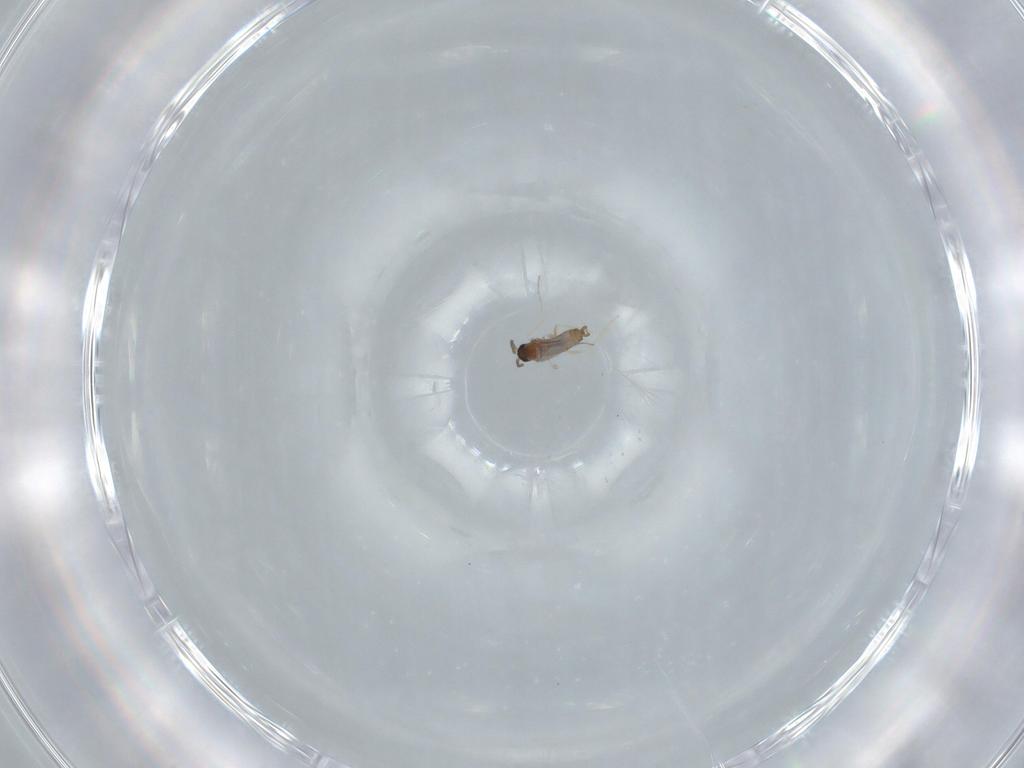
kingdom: Animalia
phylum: Arthropoda
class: Insecta
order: Diptera
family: Cecidomyiidae
